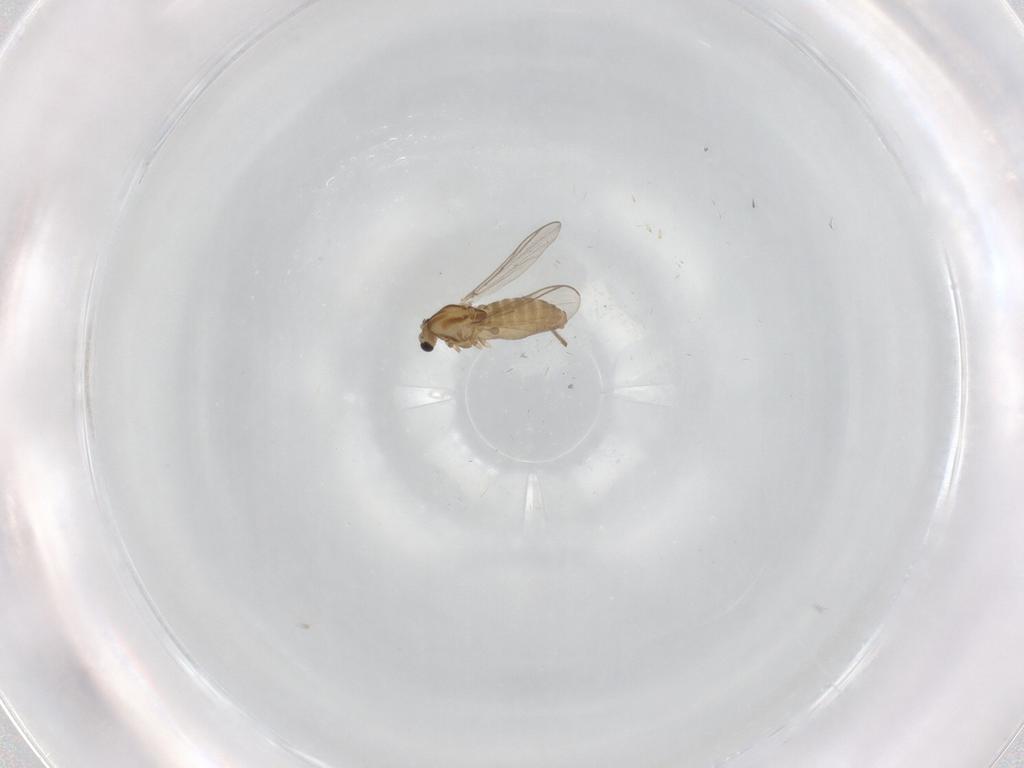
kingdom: Animalia
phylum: Arthropoda
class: Insecta
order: Diptera
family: Chironomidae
